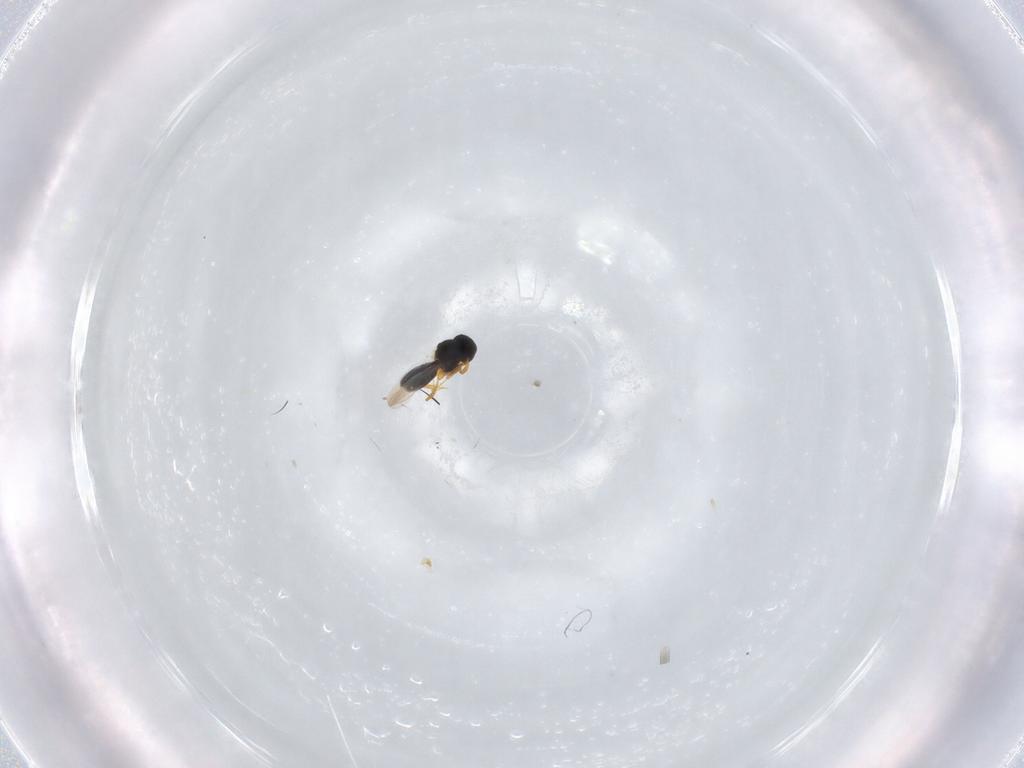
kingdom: Animalia
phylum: Arthropoda
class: Insecta
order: Hymenoptera
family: Platygastridae
